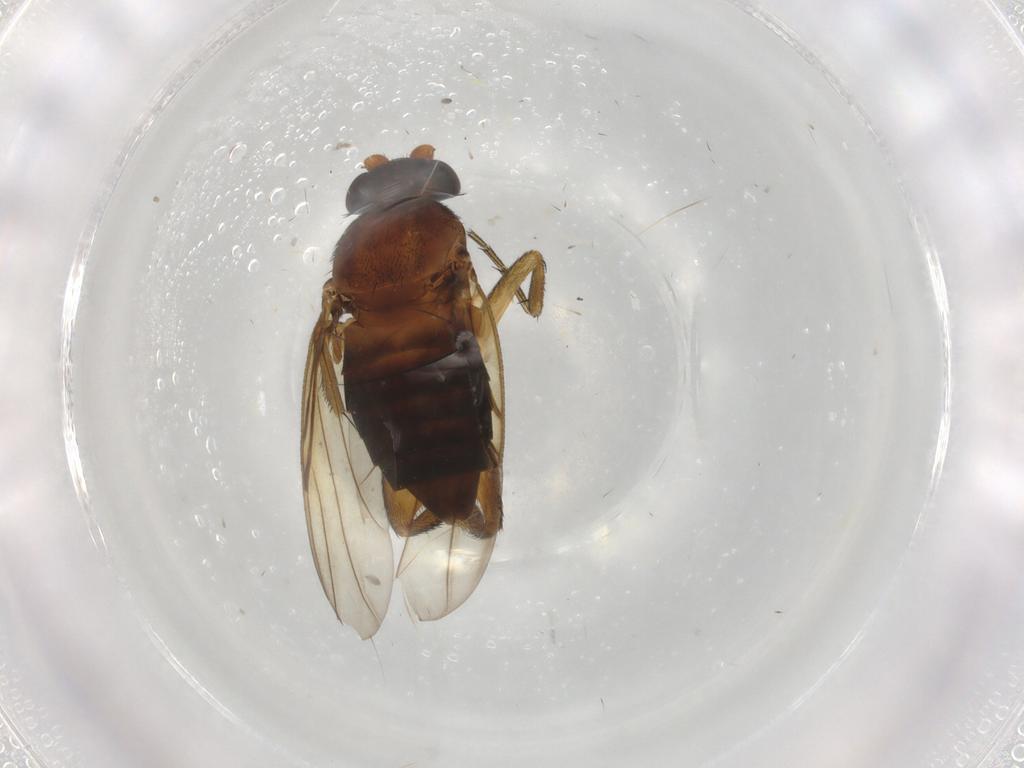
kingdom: Animalia
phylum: Arthropoda
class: Insecta
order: Diptera
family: Phoridae
